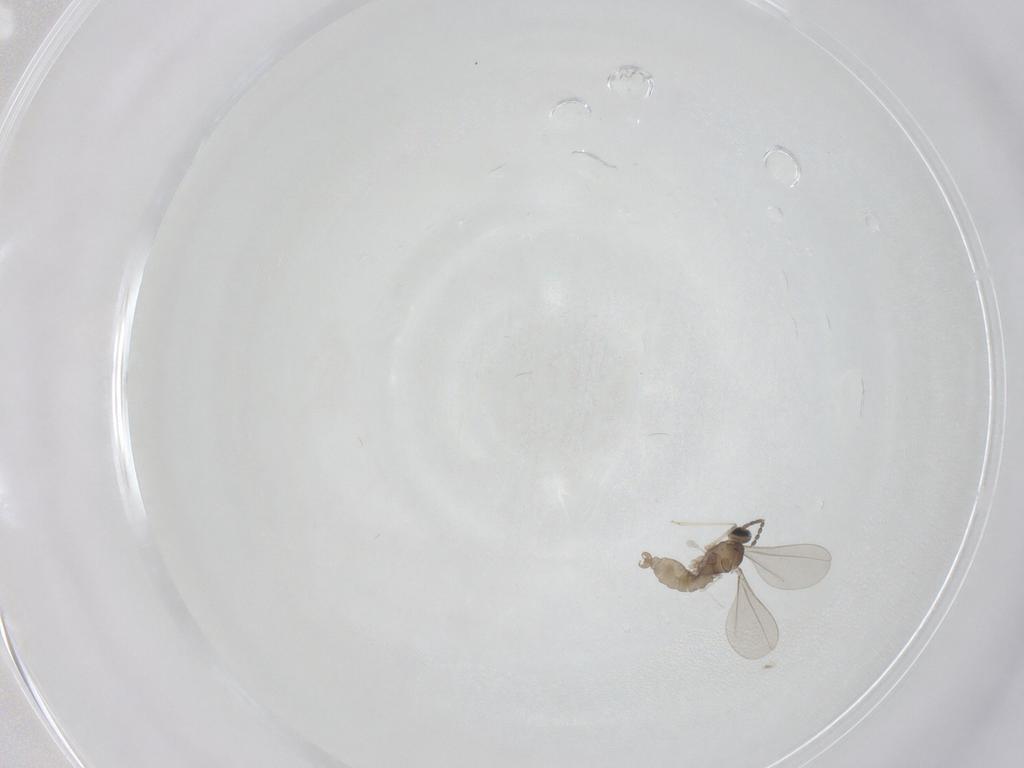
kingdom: Animalia
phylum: Arthropoda
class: Insecta
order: Diptera
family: Phoridae
